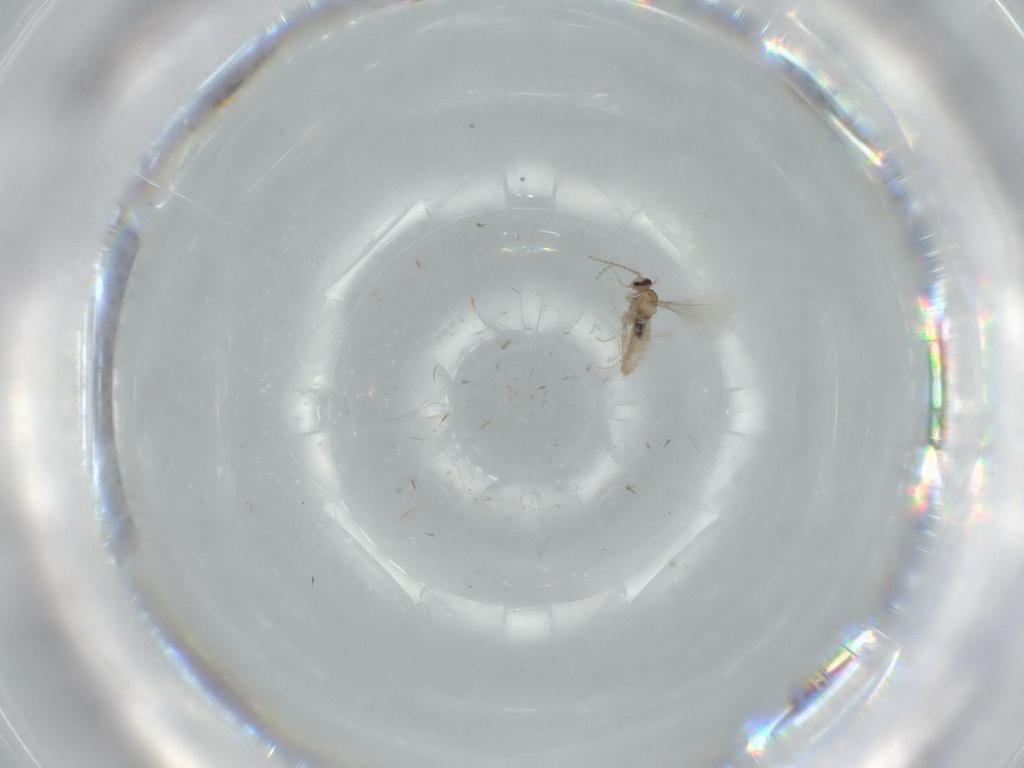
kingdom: Animalia
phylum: Arthropoda
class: Insecta
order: Diptera
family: Cecidomyiidae
